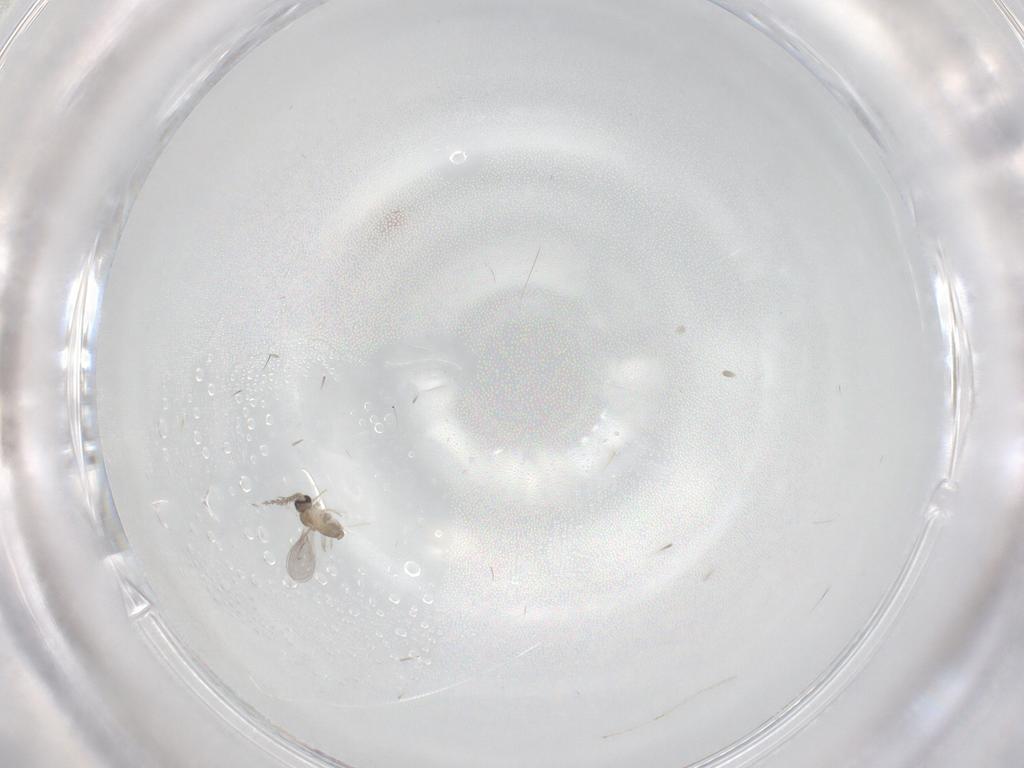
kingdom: Animalia
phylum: Arthropoda
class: Insecta
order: Diptera
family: Cecidomyiidae
